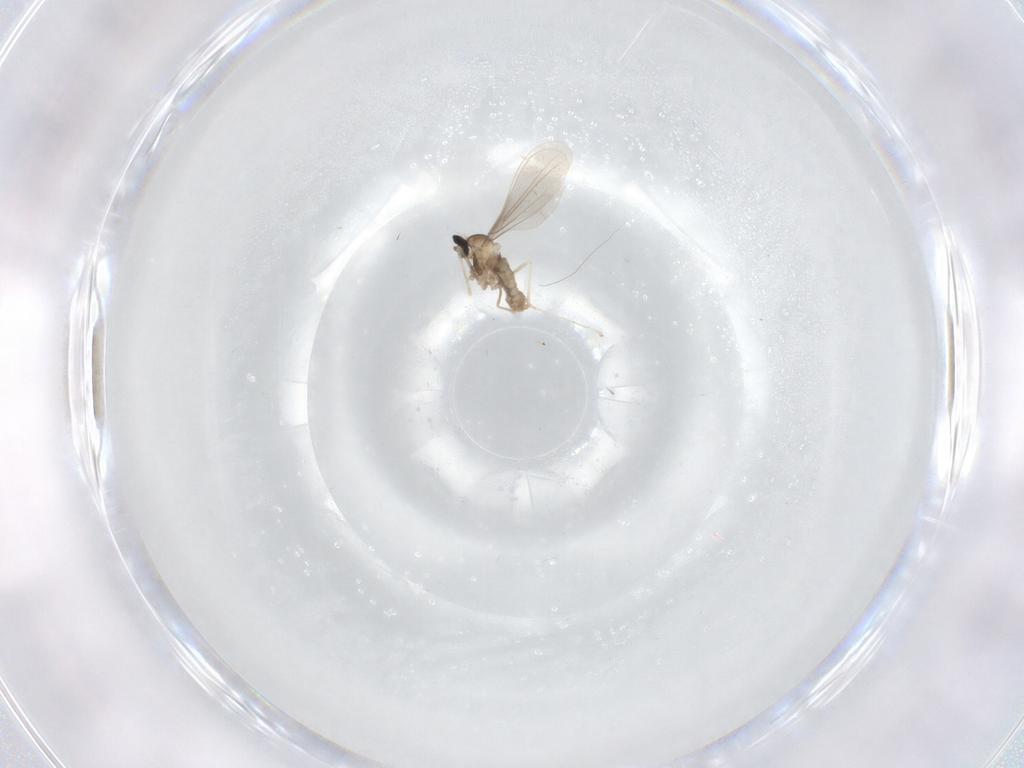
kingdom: Animalia
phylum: Arthropoda
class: Insecta
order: Diptera
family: Cecidomyiidae
